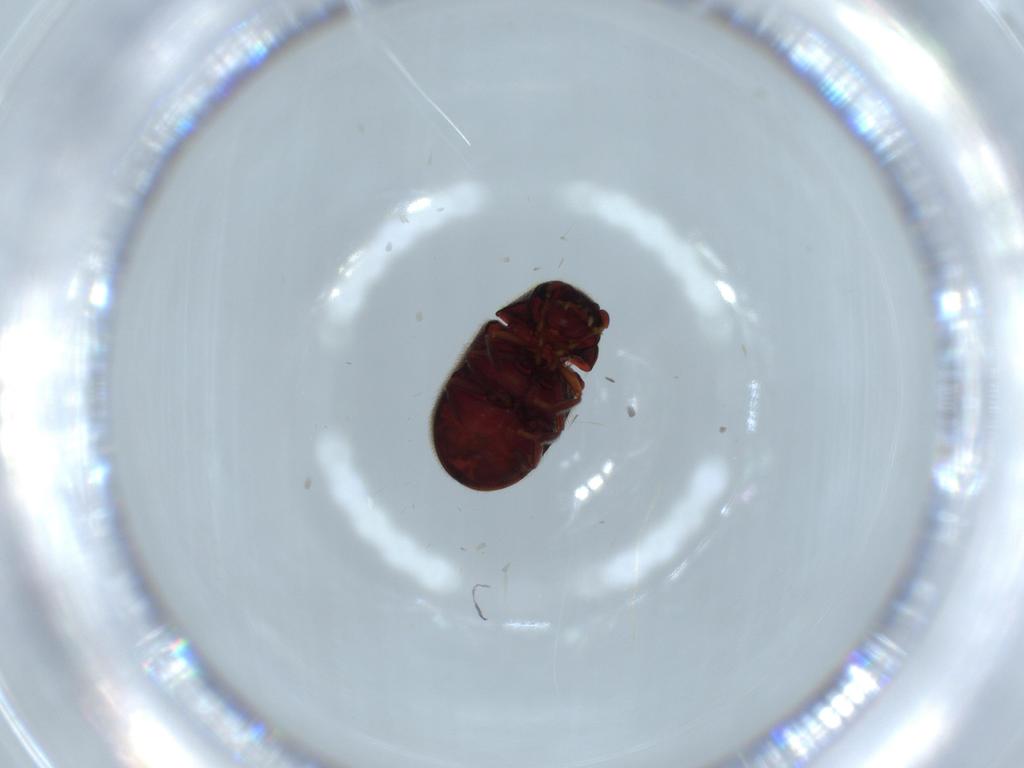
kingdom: Animalia
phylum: Arthropoda
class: Insecta
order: Coleoptera
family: Ptinidae
